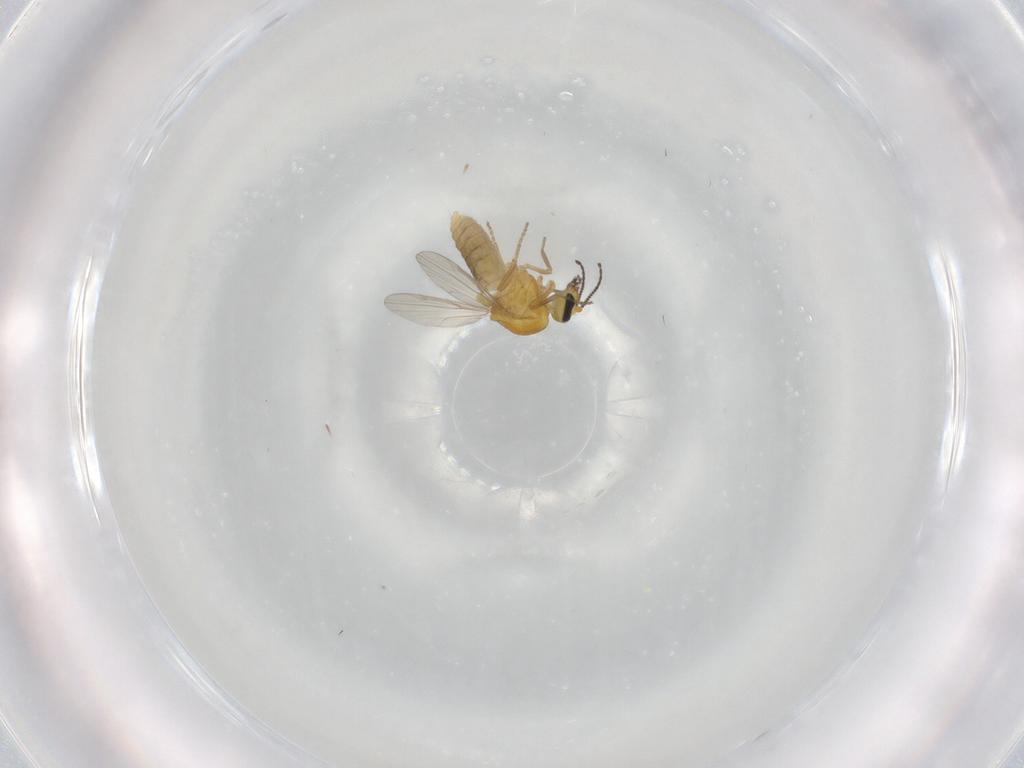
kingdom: Animalia
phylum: Arthropoda
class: Insecta
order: Diptera
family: Ceratopogonidae
